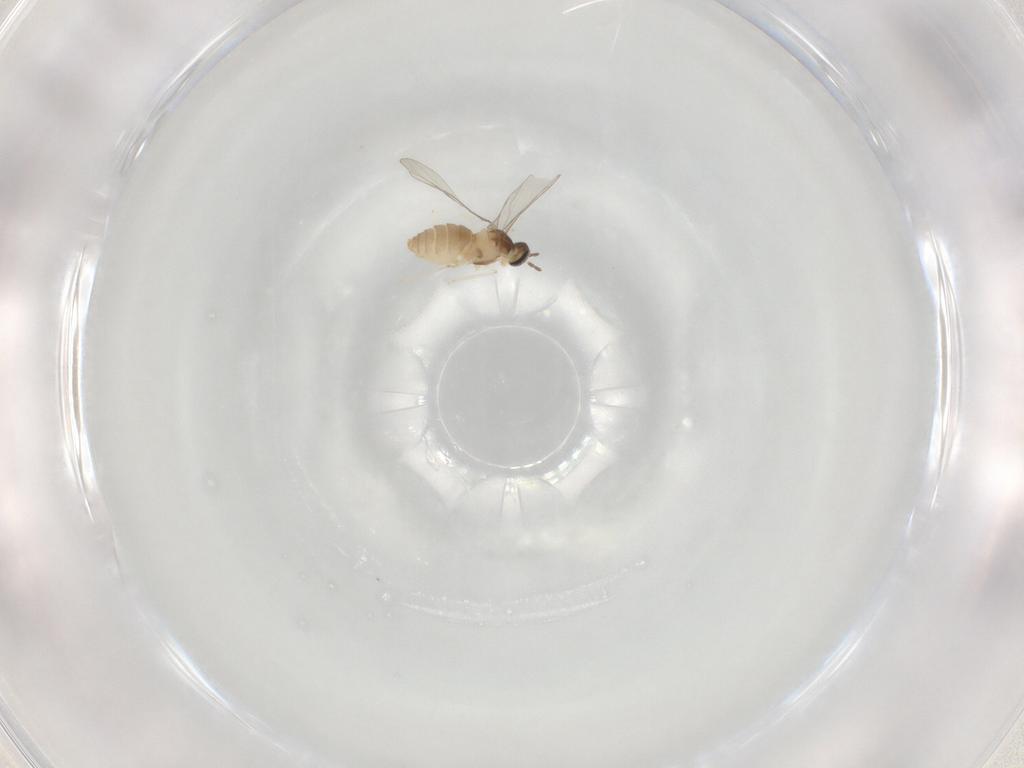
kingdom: Animalia
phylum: Arthropoda
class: Insecta
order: Diptera
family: Cecidomyiidae
